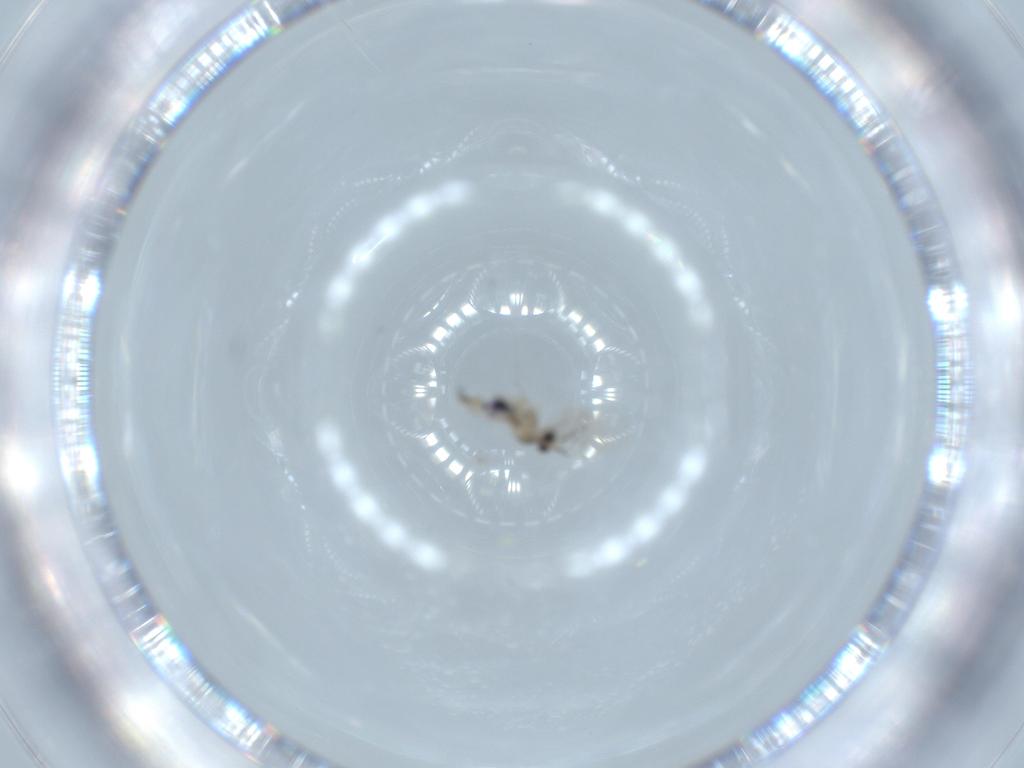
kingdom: Animalia
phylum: Arthropoda
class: Insecta
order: Diptera
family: Cecidomyiidae
